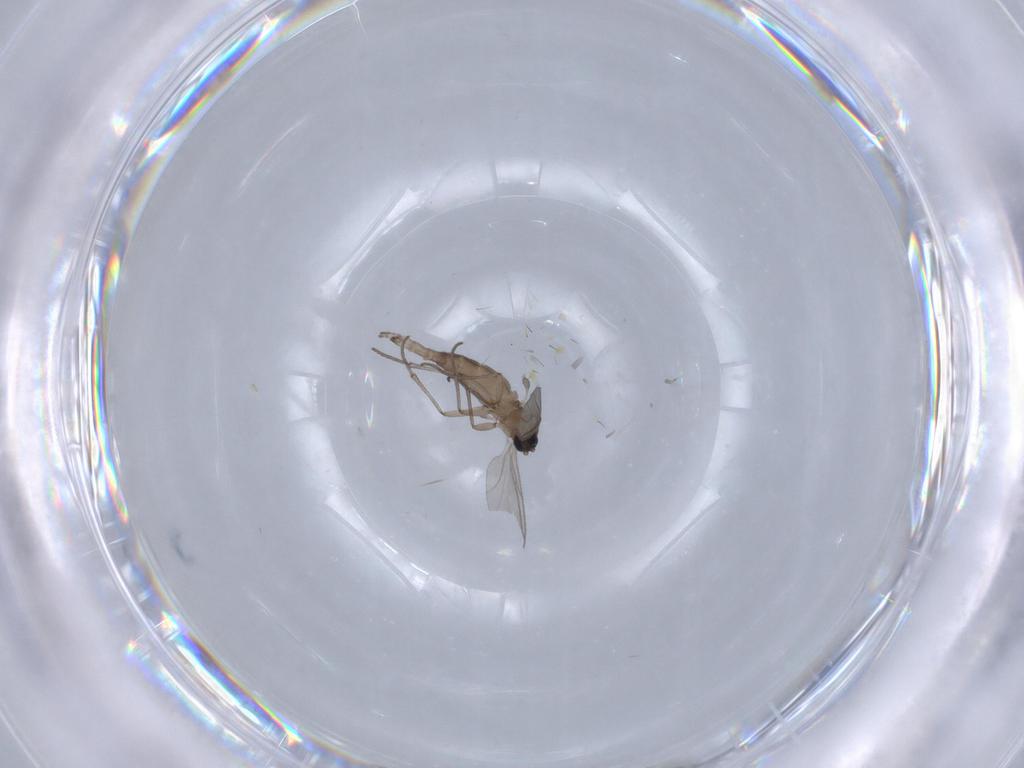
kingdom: Animalia
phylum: Arthropoda
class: Insecta
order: Diptera
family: Sciaridae
